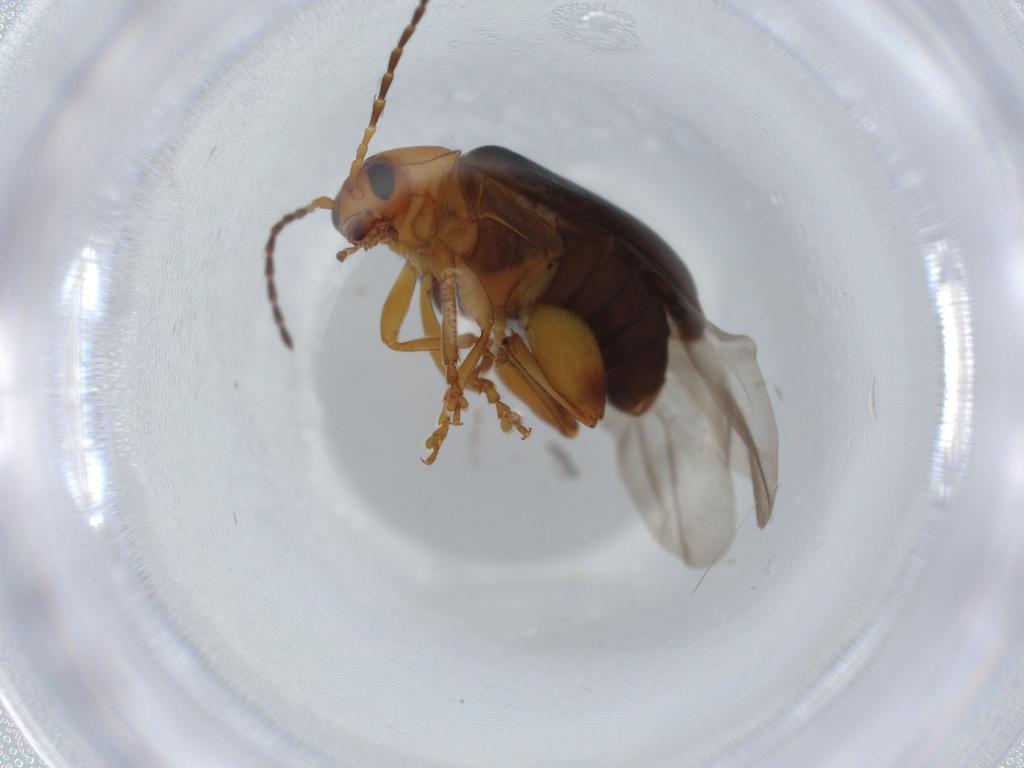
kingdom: Animalia
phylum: Arthropoda
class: Insecta
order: Coleoptera
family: Chrysomelidae
